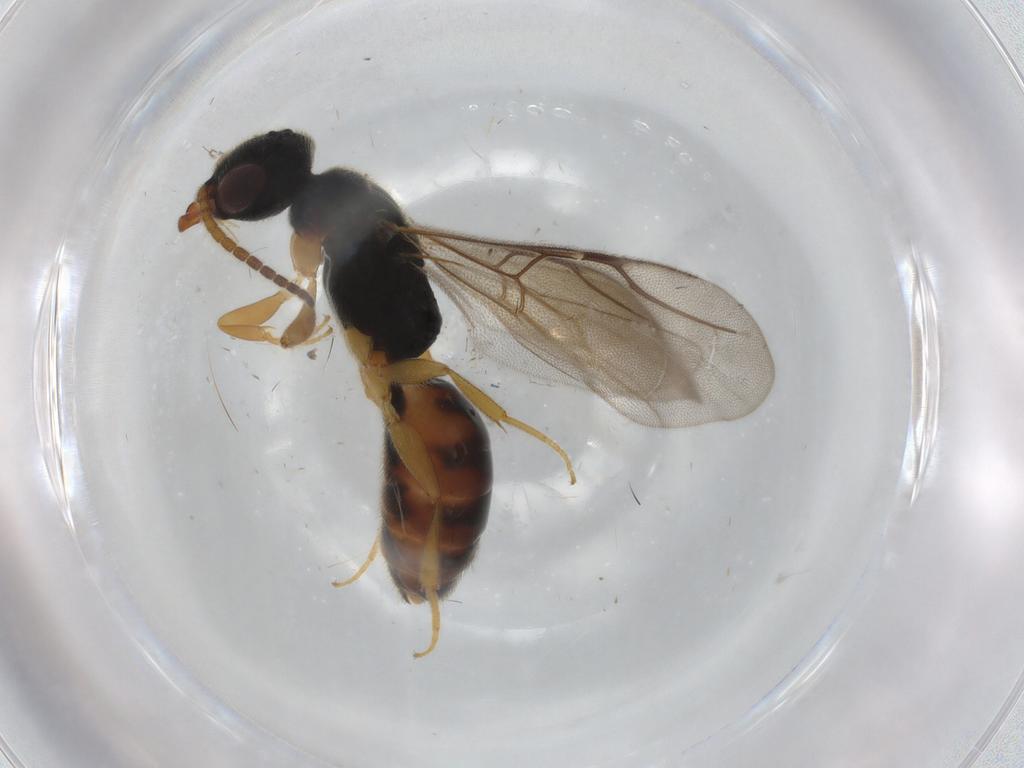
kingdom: Animalia
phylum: Arthropoda
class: Insecta
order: Hymenoptera
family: Formicidae
